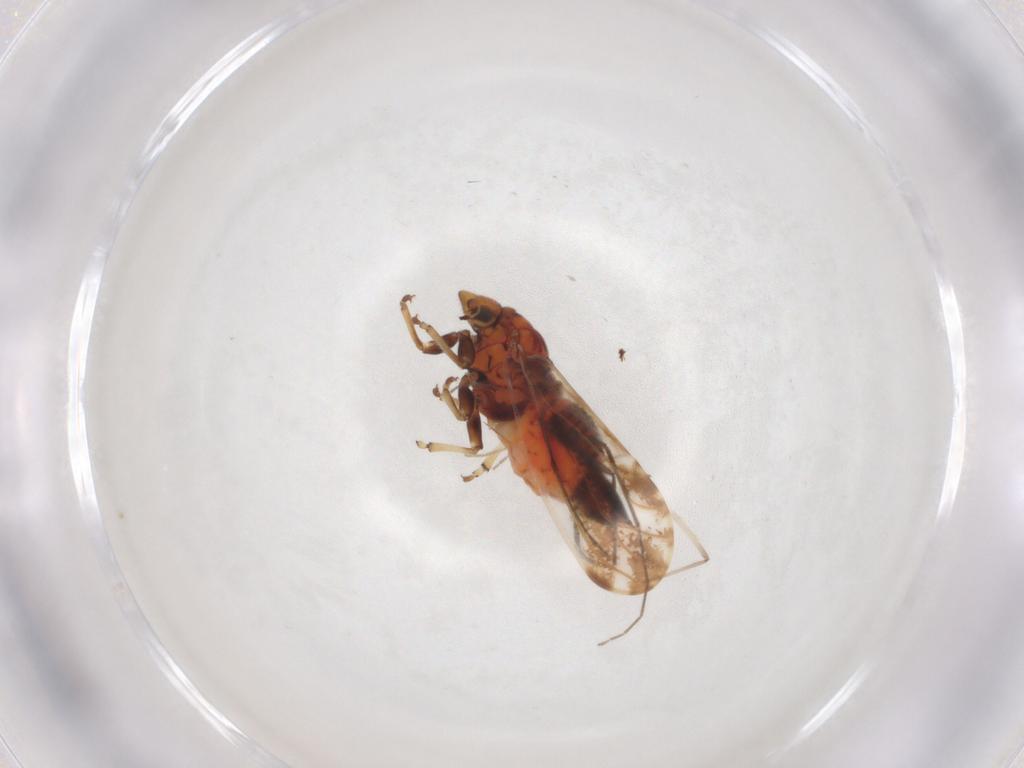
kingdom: Animalia
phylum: Arthropoda
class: Insecta
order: Hemiptera
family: Psylloidea_incertae_sedis
